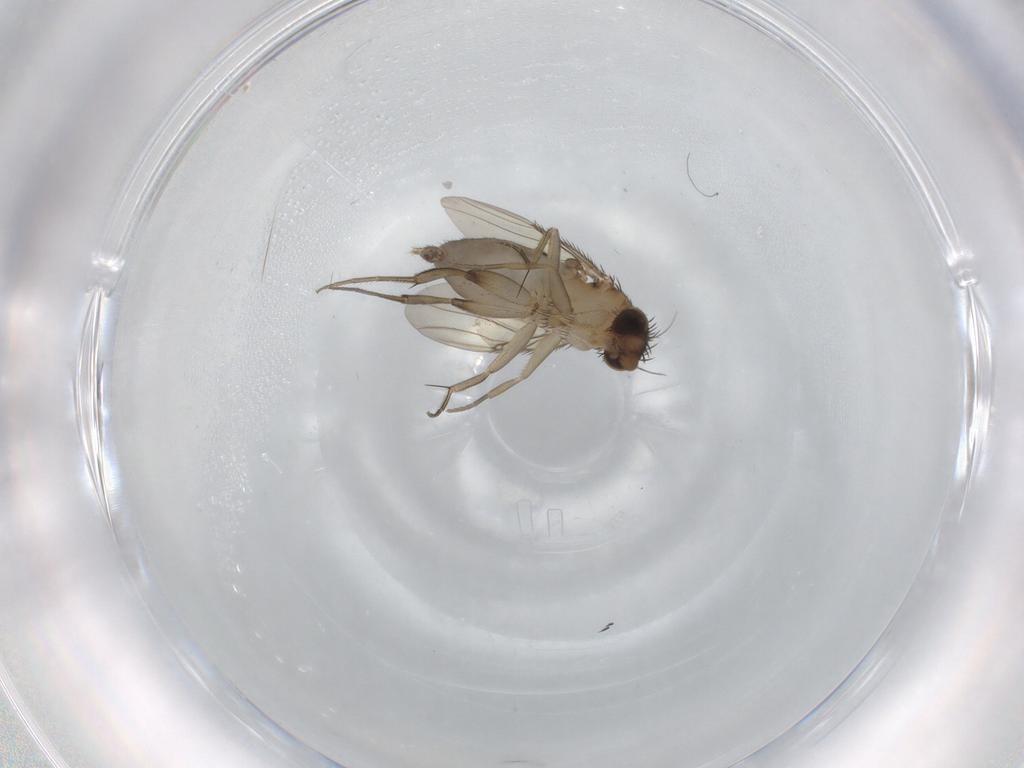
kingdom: Animalia
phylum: Arthropoda
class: Insecta
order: Diptera
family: Phoridae
